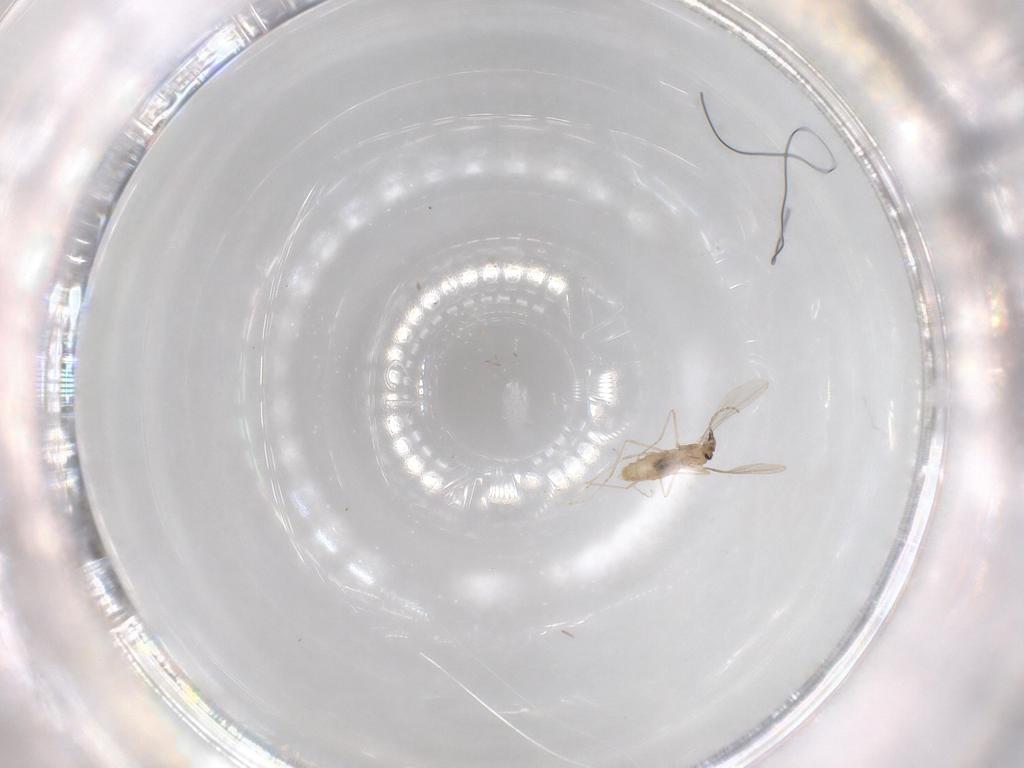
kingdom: Animalia
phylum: Arthropoda
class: Insecta
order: Diptera
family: Cecidomyiidae
